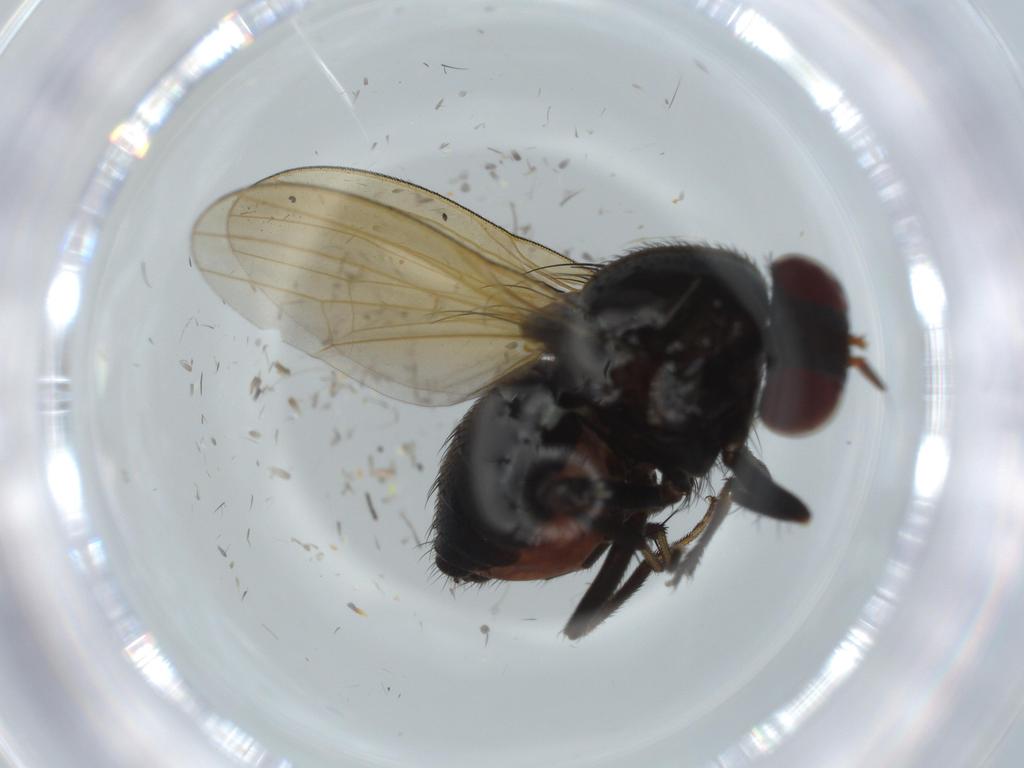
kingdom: Animalia
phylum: Arthropoda
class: Insecta
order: Diptera
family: Lauxaniidae
